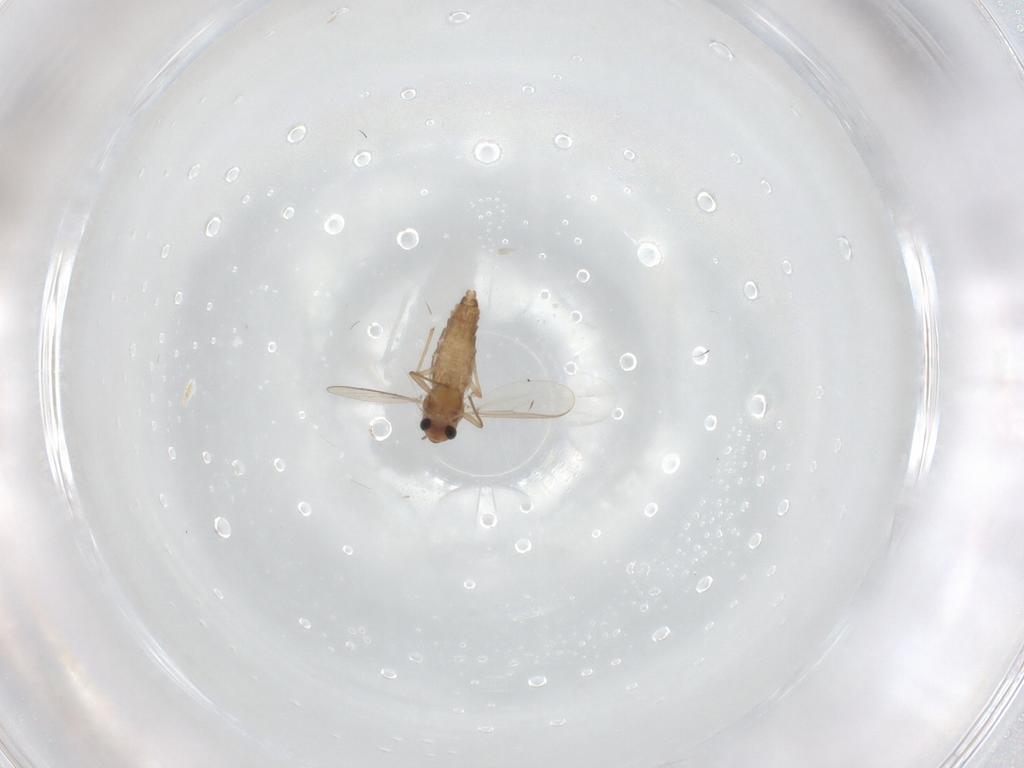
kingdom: Animalia
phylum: Arthropoda
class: Insecta
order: Diptera
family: Chironomidae
